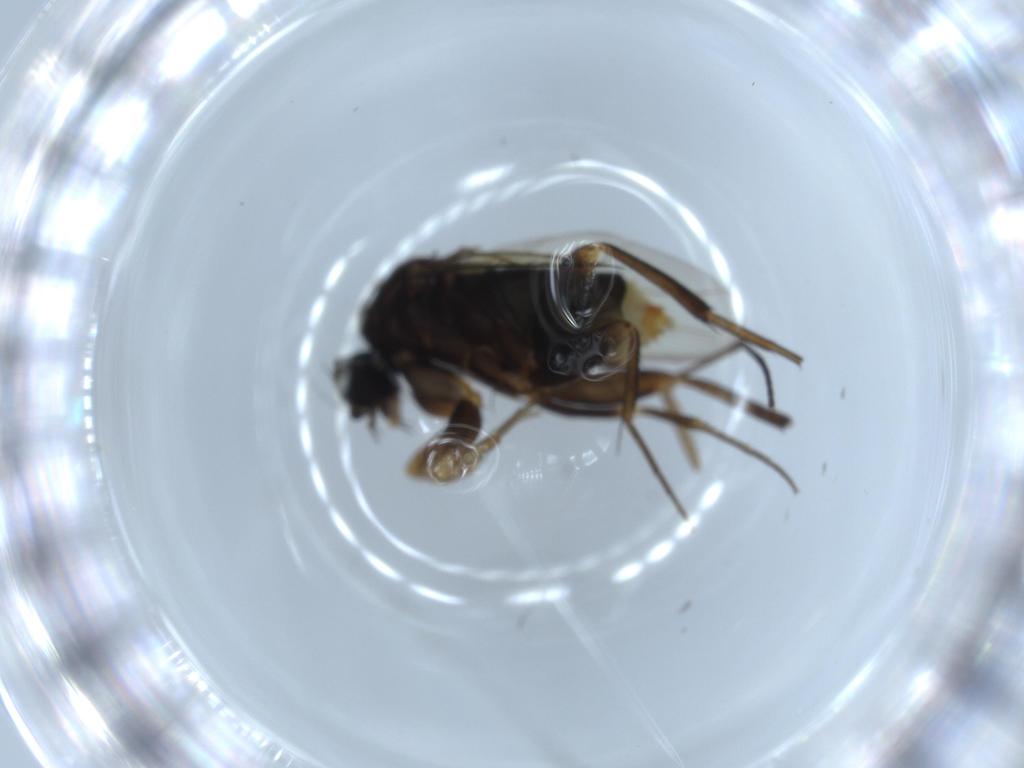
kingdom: Animalia
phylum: Arthropoda
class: Insecta
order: Diptera
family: Phoridae
